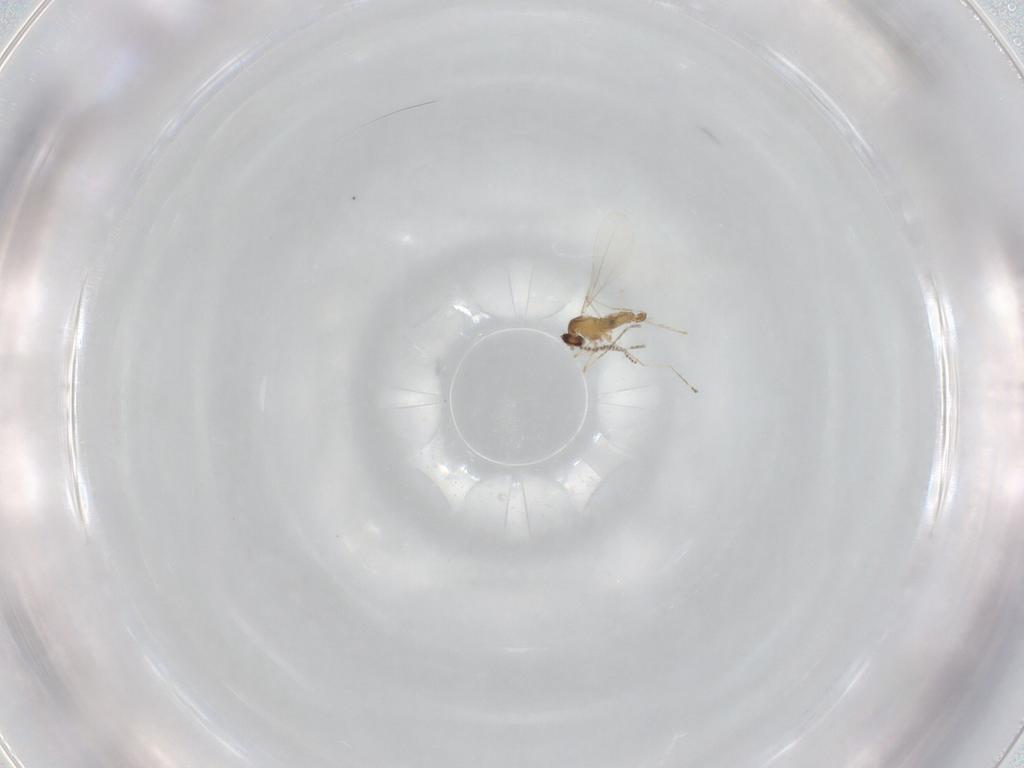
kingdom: Animalia
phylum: Arthropoda
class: Insecta
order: Diptera
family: Cecidomyiidae
